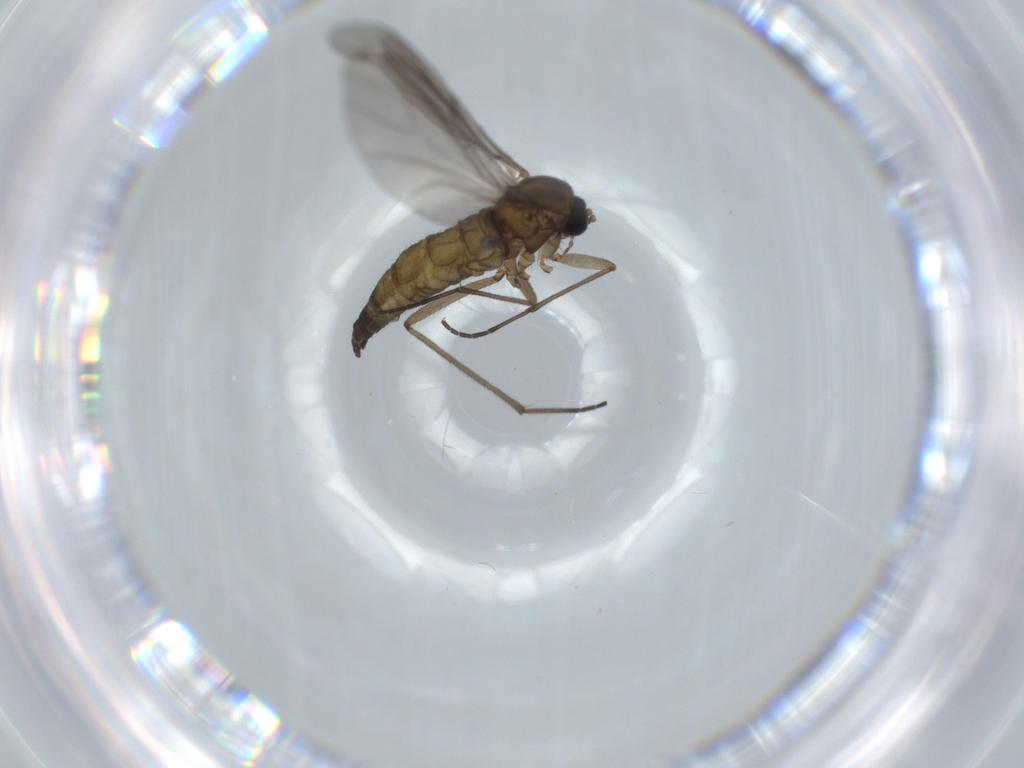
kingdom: Animalia
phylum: Arthropoda
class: Insecta
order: Diptera
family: Sciaridae
